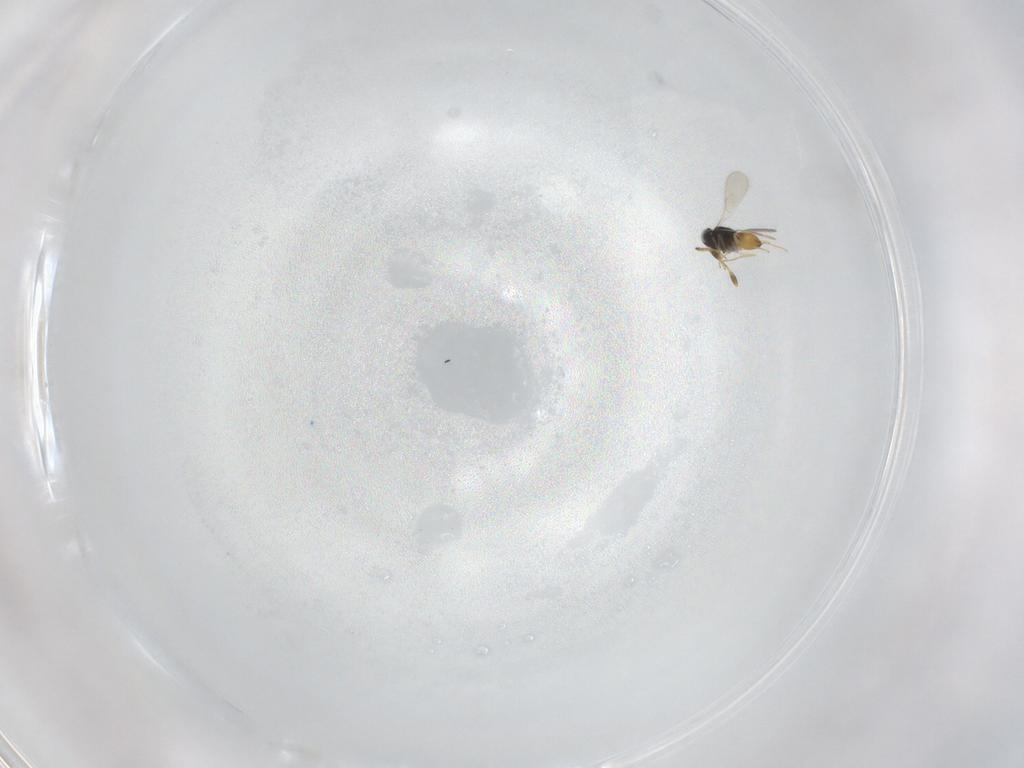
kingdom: Animalia
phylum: Arthropoda
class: Insecta
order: Hymenoptera
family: Scelionidae
